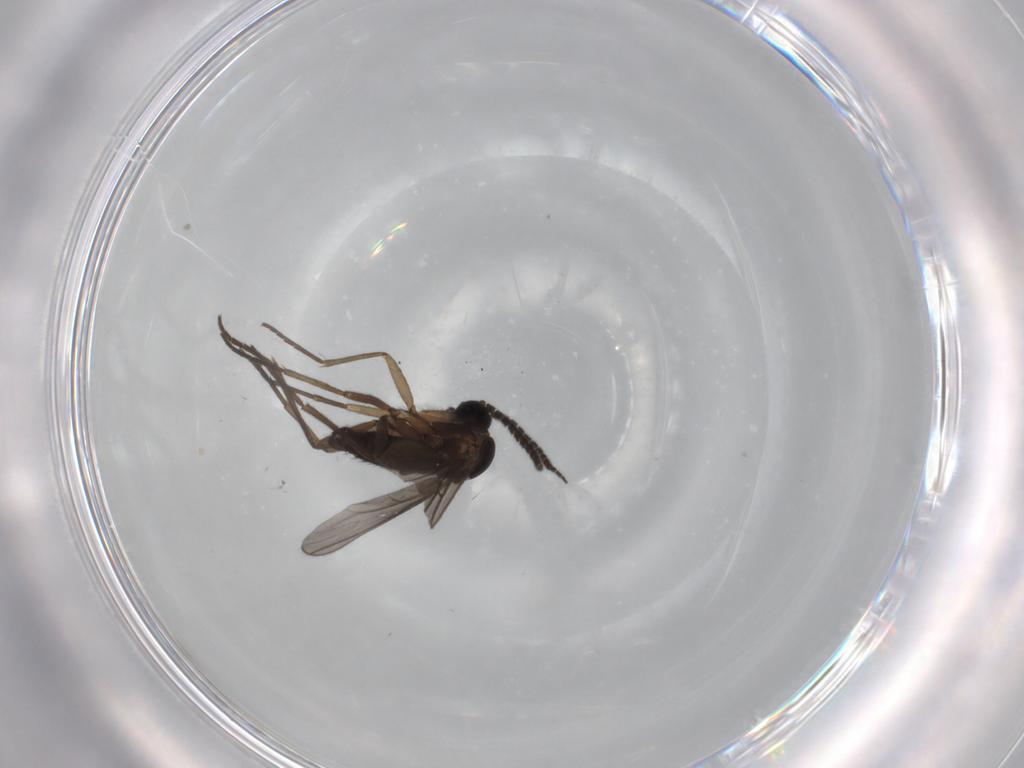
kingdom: Animalia
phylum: Arthropoda
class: Insecta
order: Diptera
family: Sciaridae
